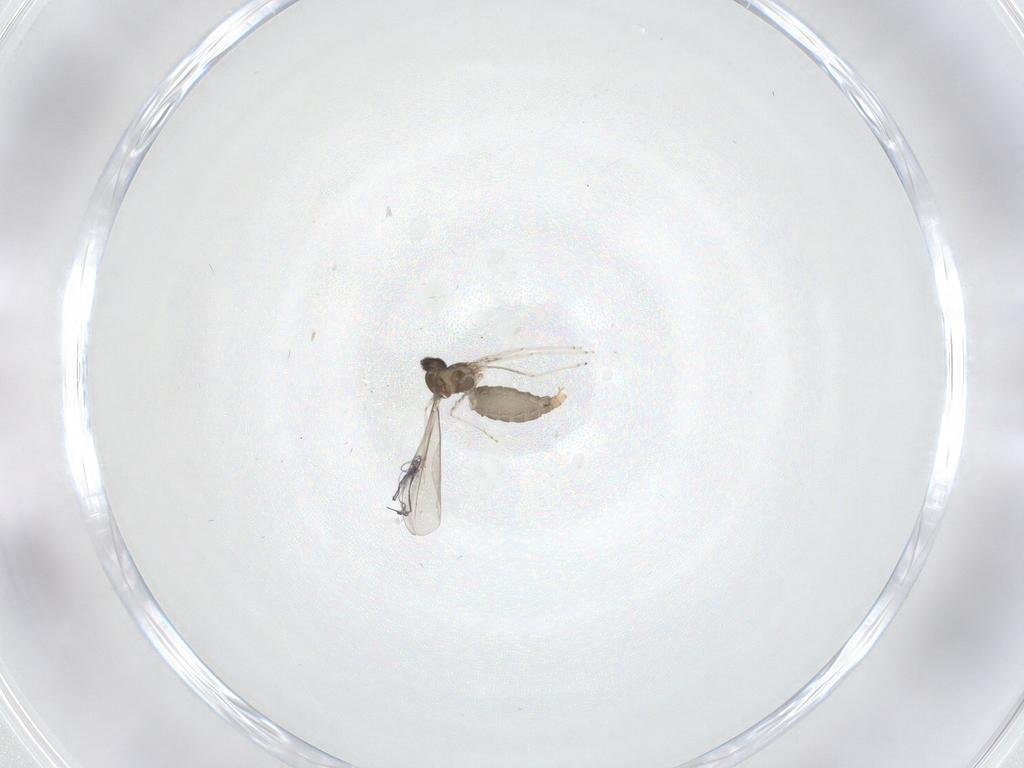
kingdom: Animalia
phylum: Arthropoda
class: Insecta
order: Diptera
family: Cecidomyiidae
